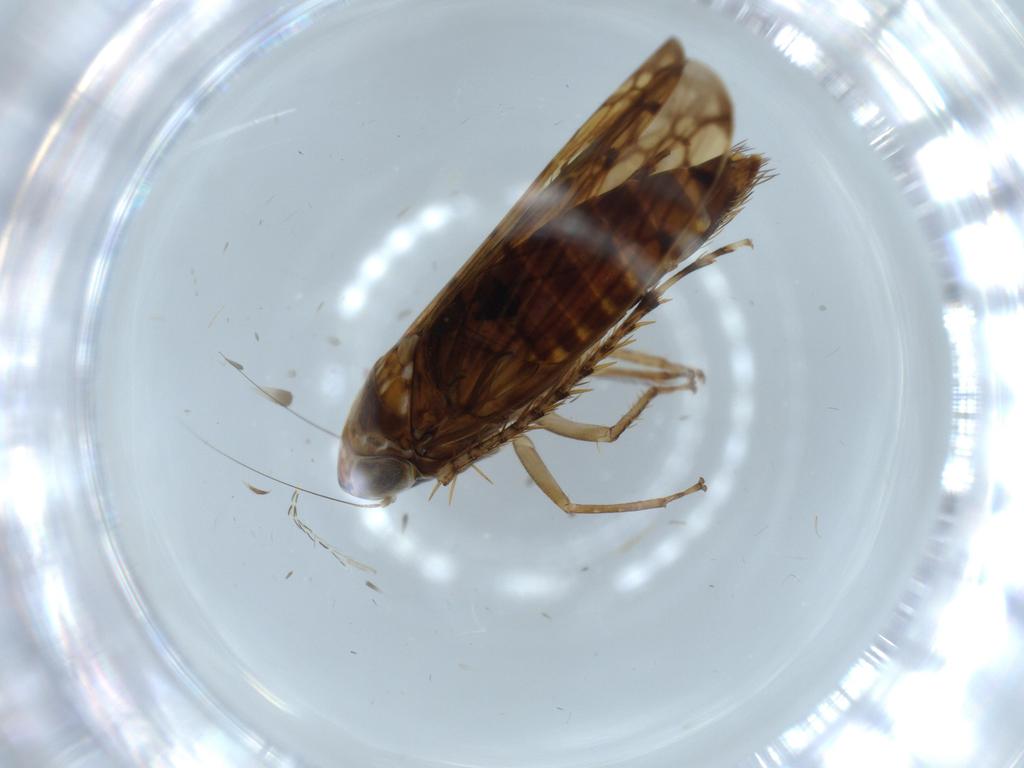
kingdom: Animalia
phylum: Arthropoda
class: Insecta
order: Hemiptera
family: Cicadellidae
